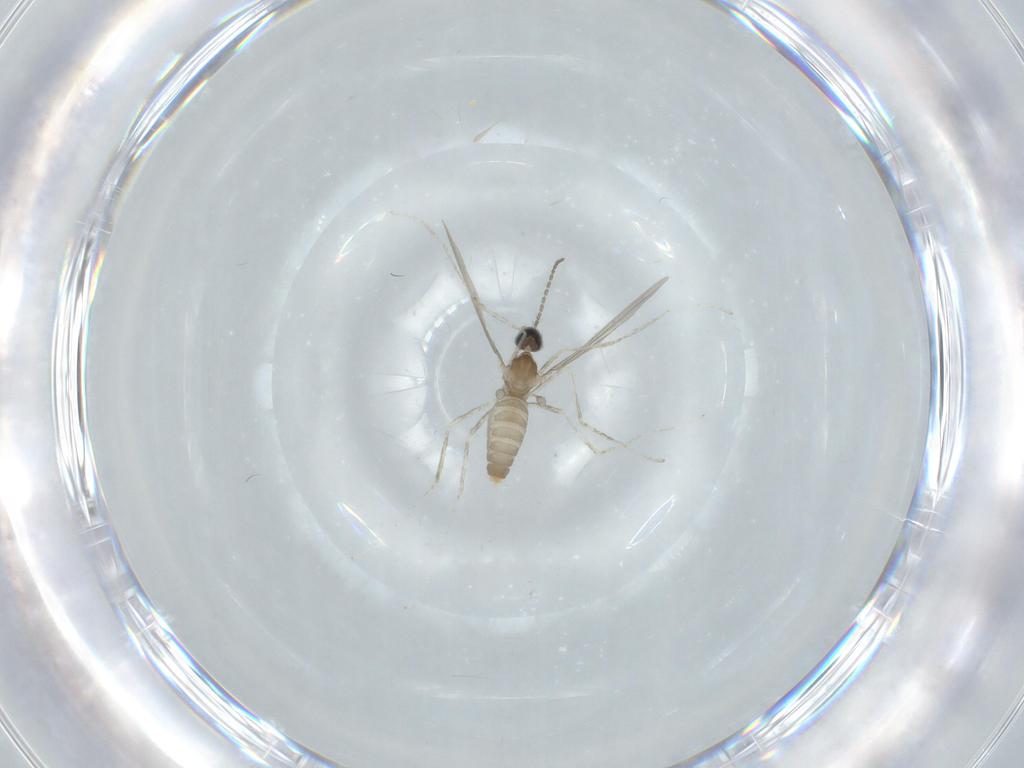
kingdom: Animalia
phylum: Arthropoda
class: Insecta
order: Diptera
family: Cecidomyiidae
